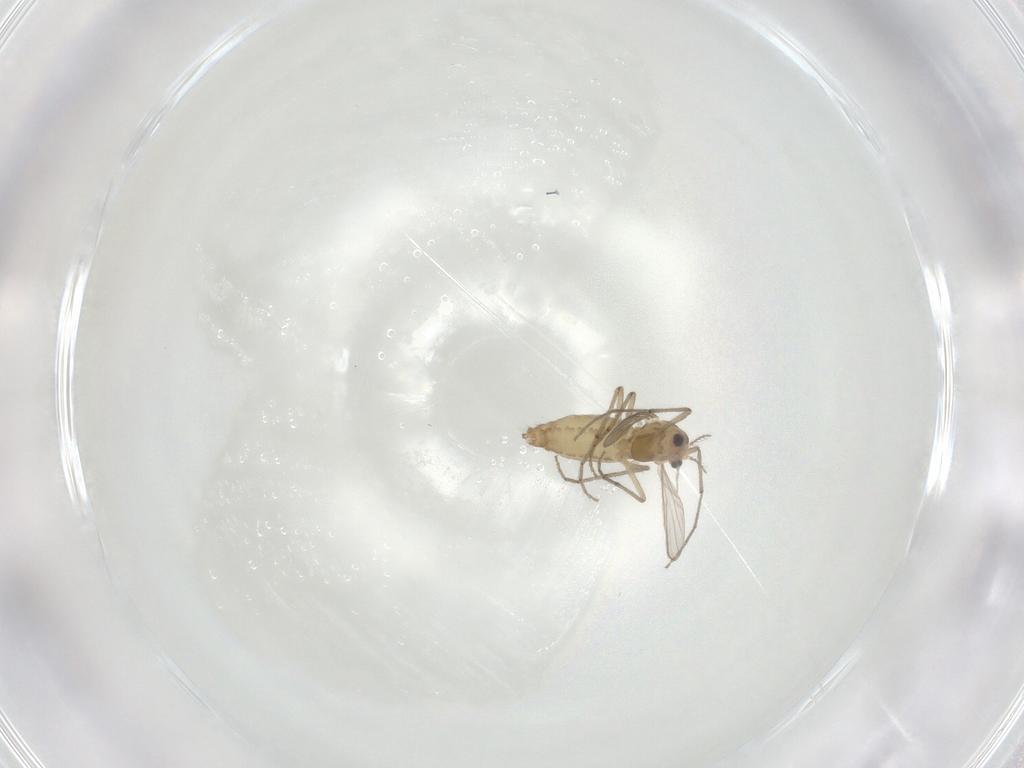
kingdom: Animalia
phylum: Arthropoda
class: Insecta
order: Diptera
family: Chironomidae
